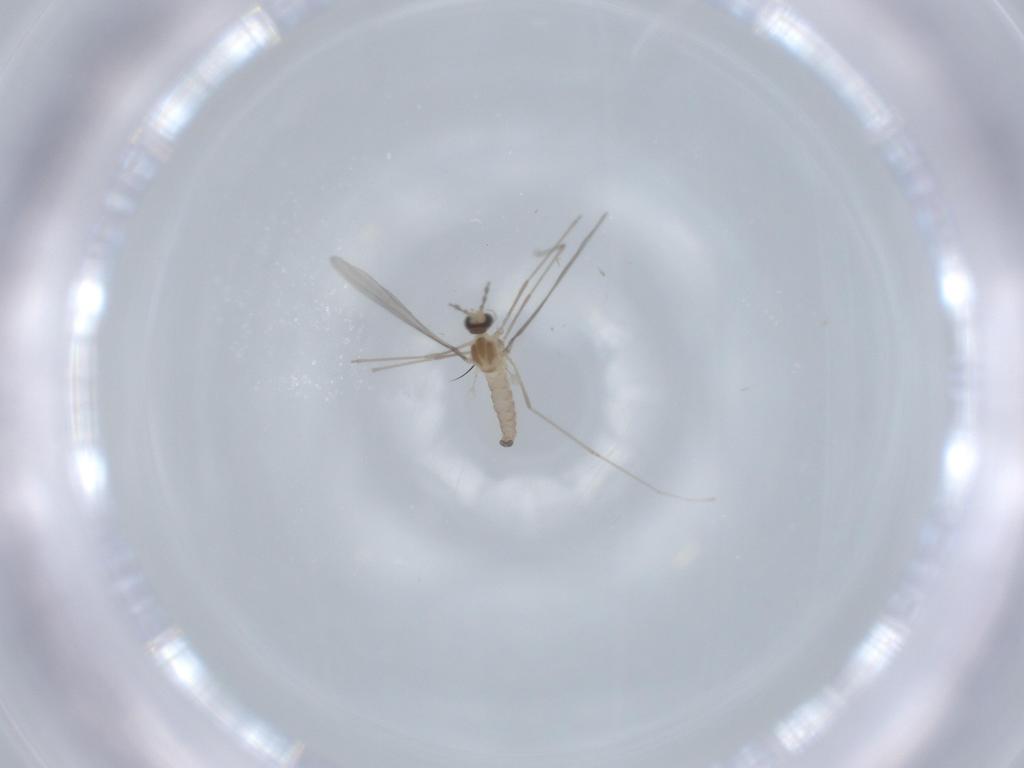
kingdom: Animalia
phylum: Arthropoda
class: Insecta
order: Diptera
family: Cecidomyiidae
